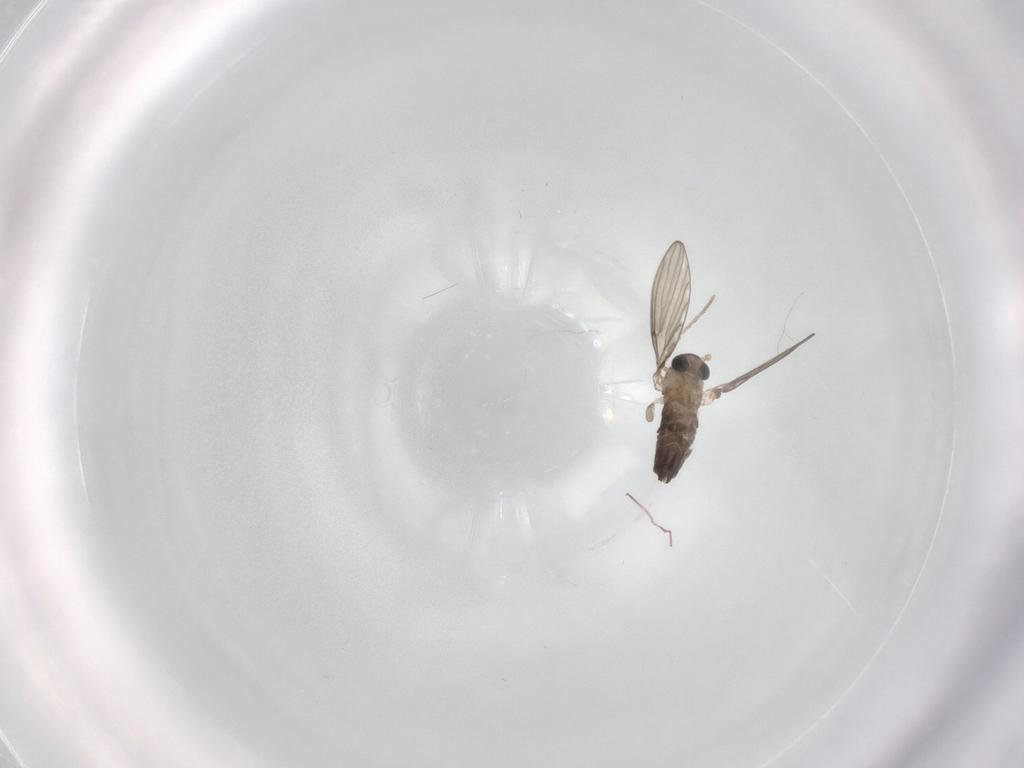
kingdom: Animalia
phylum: Arthropoda
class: Insecta
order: Diptera
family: Psychodidae
